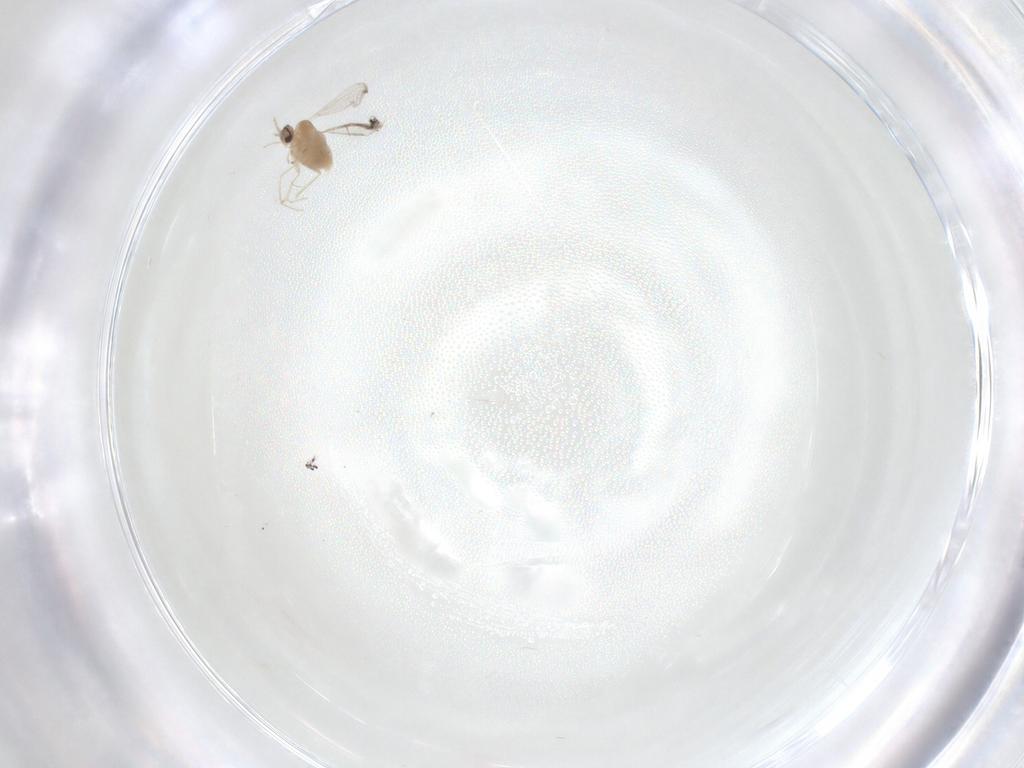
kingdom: Animalia
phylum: Arthropoda
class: Insecta
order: Diptera
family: Cecidomyiidae
